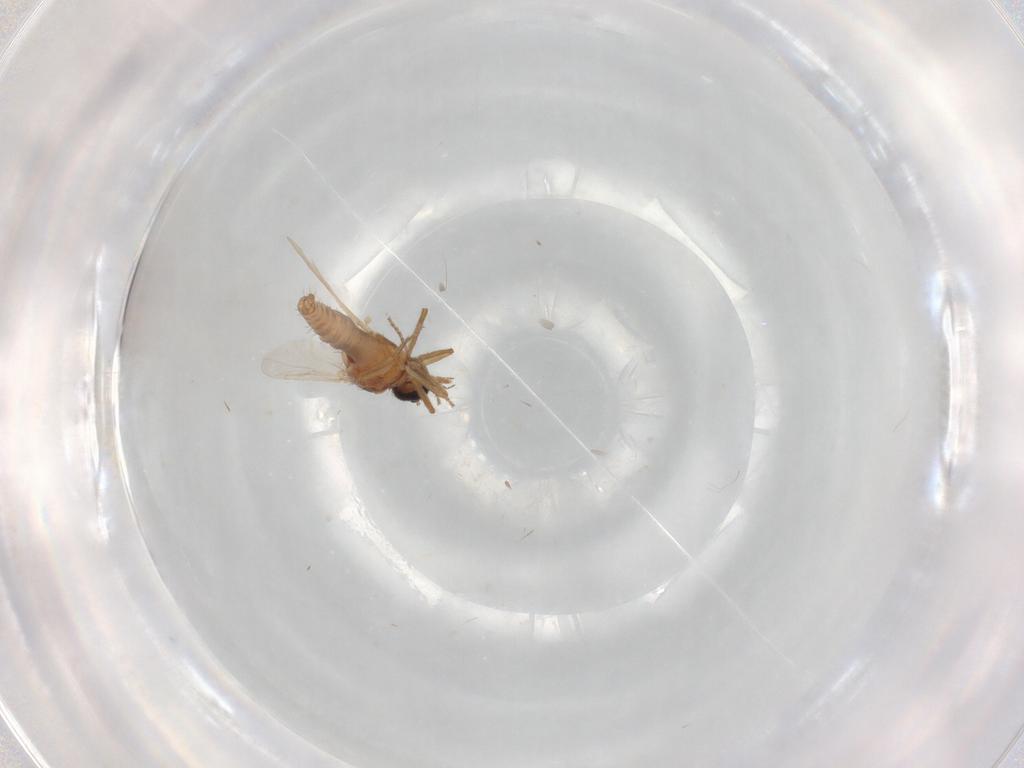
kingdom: Animalia
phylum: Arthropoda
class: Insecta
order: Diptera
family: Ceratopogonidae
